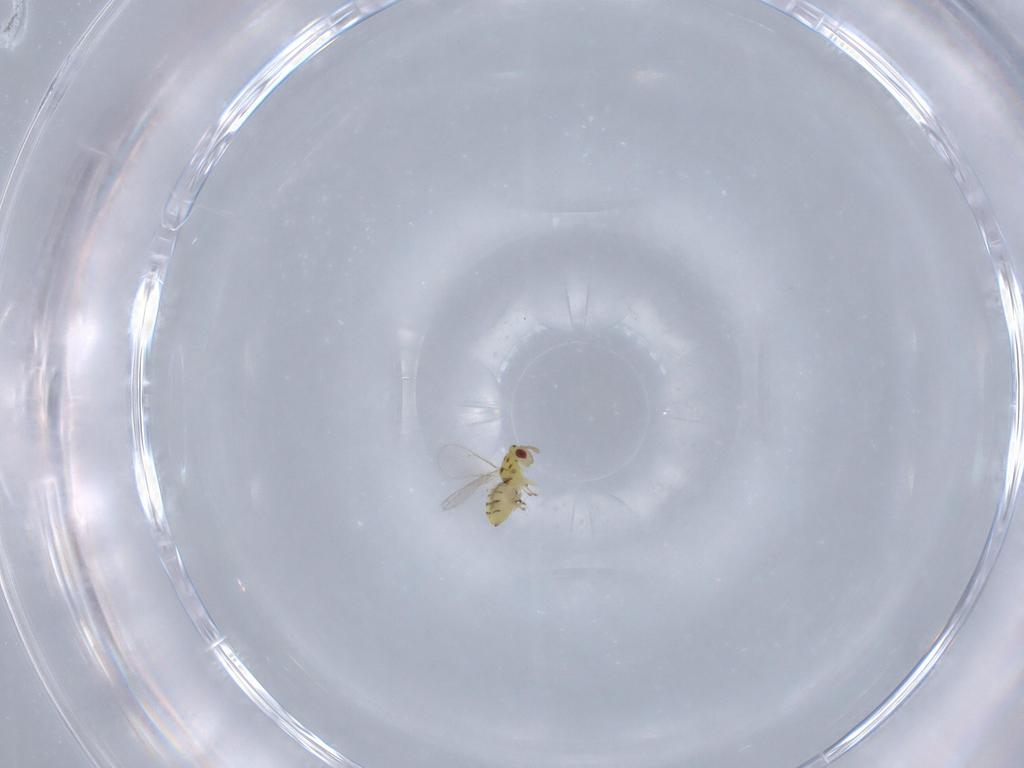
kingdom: Animalia
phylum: Arthropoda
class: Insecta
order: Hymenoptera
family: Eulophidae
